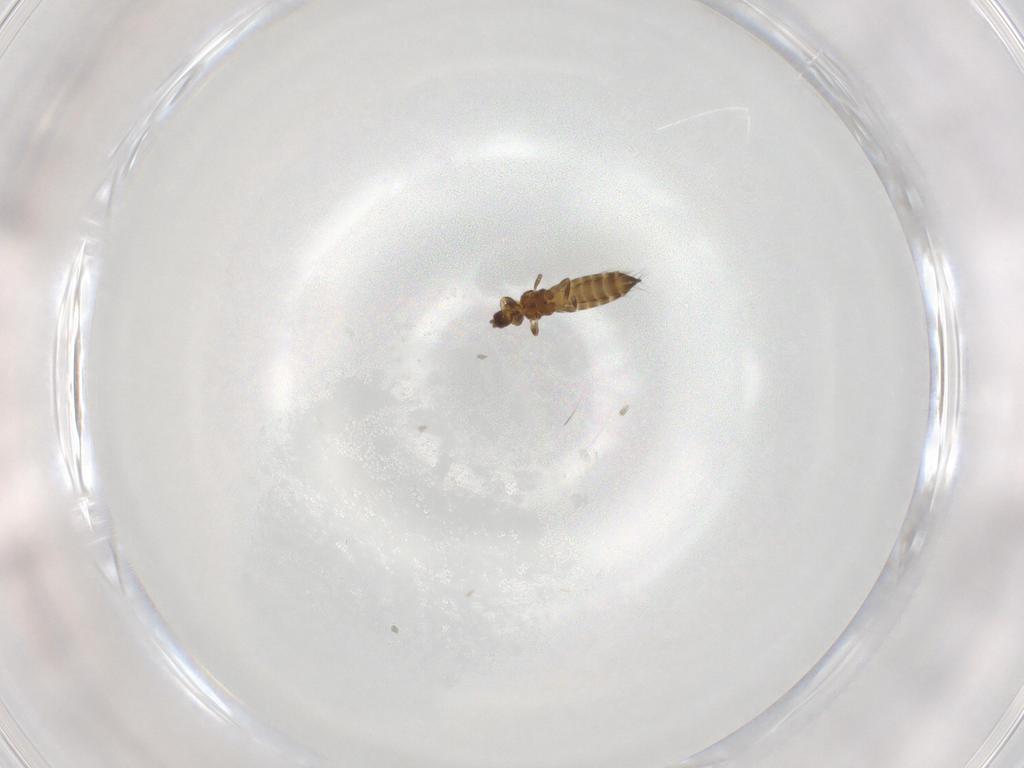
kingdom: Animalia
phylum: Arthropoda
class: Insecta
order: Thysanoptera
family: Thripidae
